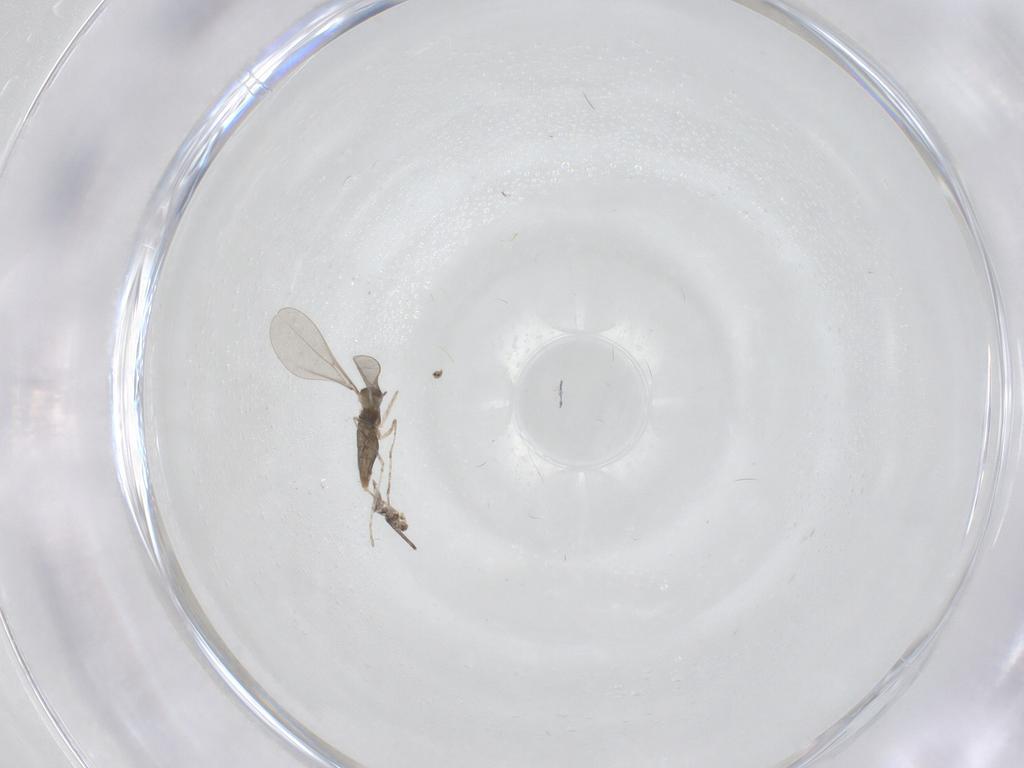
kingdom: Animalia
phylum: Arthropoda
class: Insecta
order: Diptera
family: Cecidomyiidae
